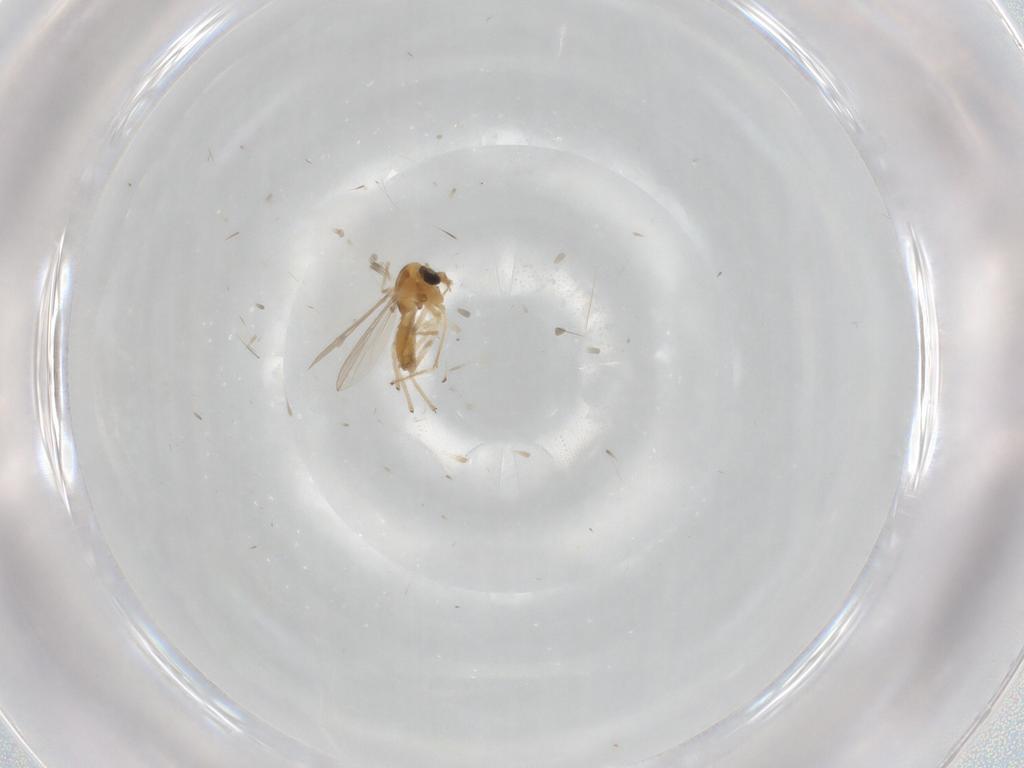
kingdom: Animalia
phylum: Arthropoda
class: Insecta
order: Diptera
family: Chironomidae
